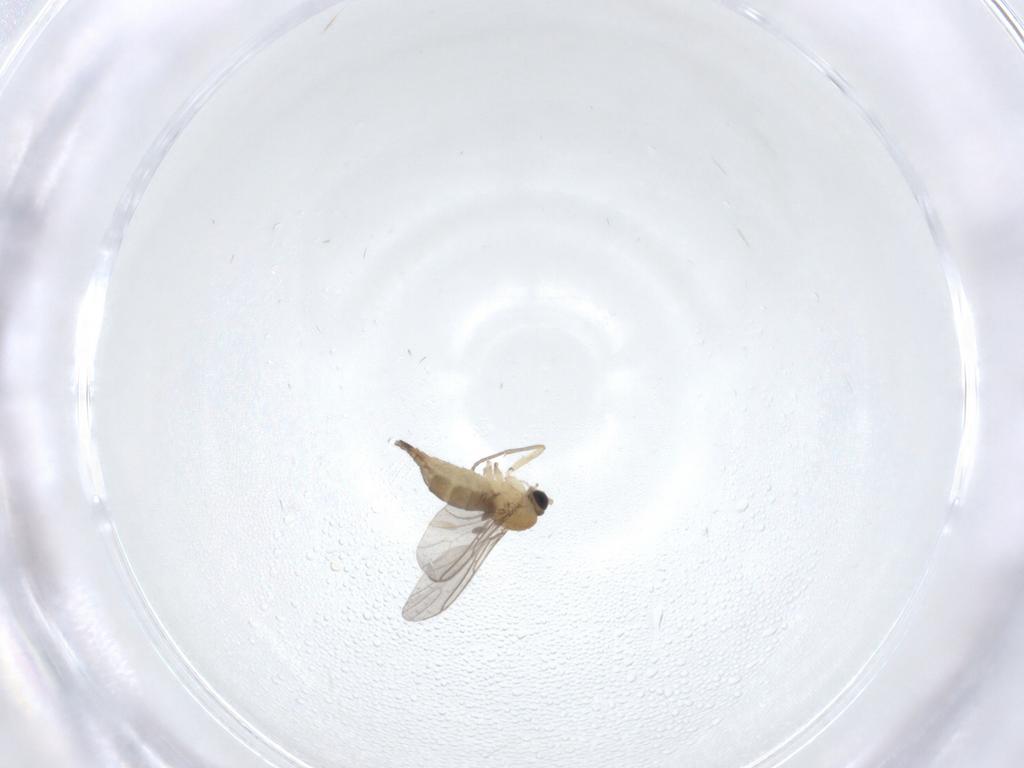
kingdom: Animalia
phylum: Arthropoda
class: Insecta
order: Diptera
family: Sciaridae
